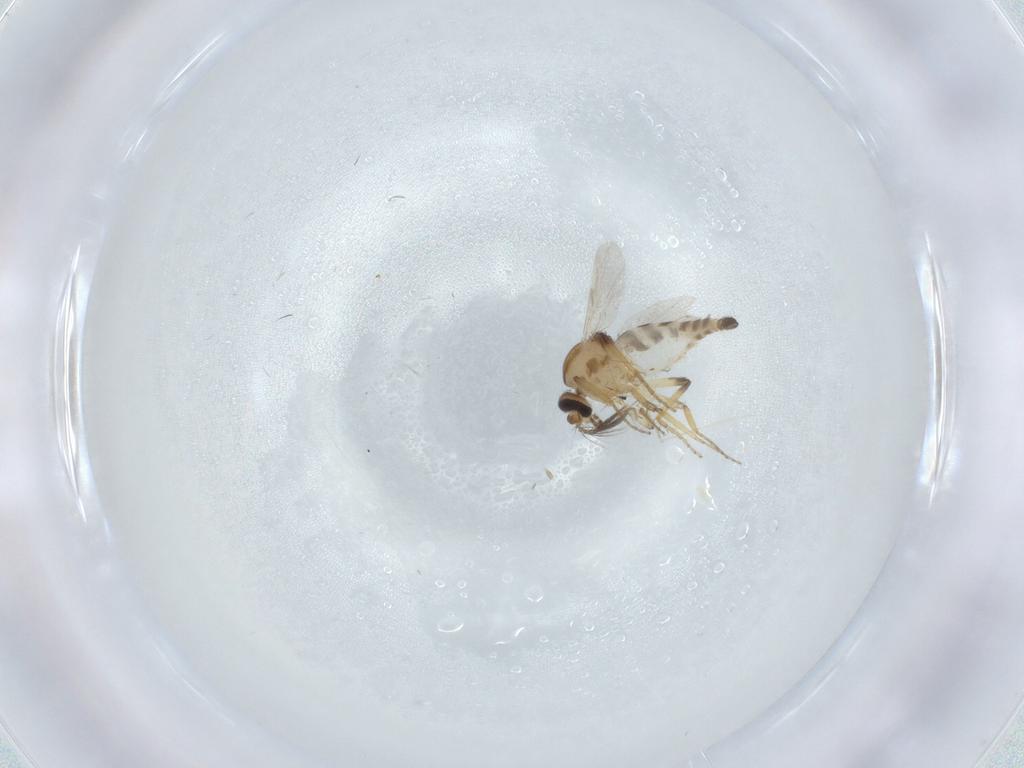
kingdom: Animalia
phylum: Arthropoda
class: Insecta
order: Diptera
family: Ceratopogonidae
